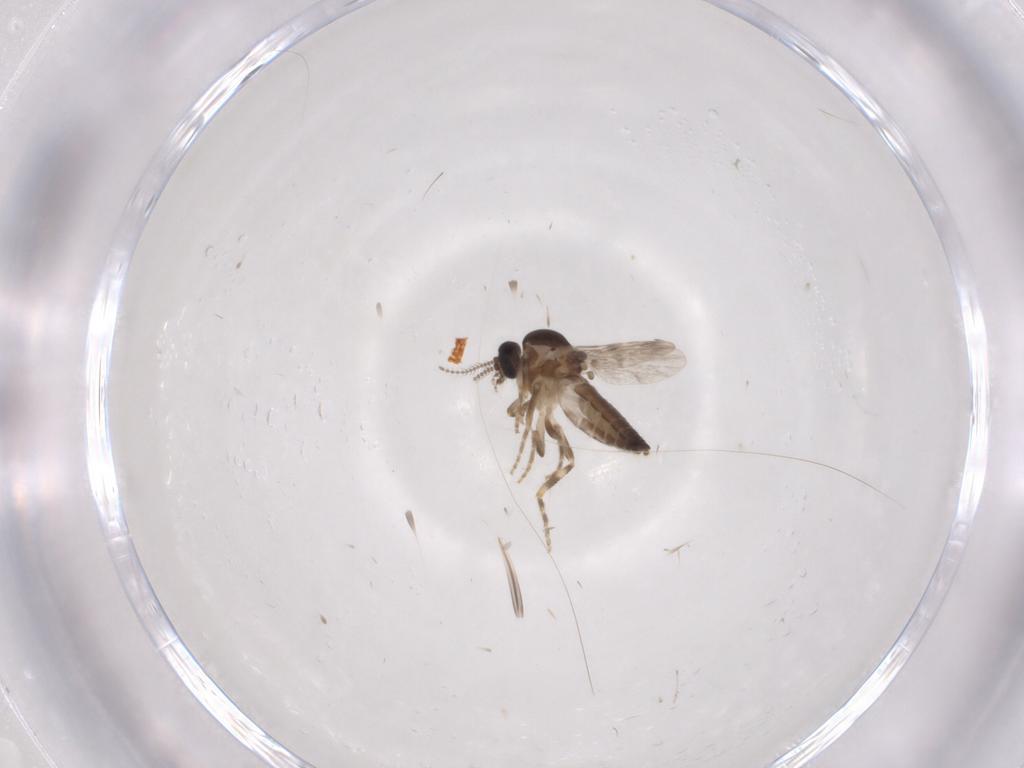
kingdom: Animalia
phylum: Arthropoda
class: Insecta
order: Diptera
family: Ceratopogonidae
